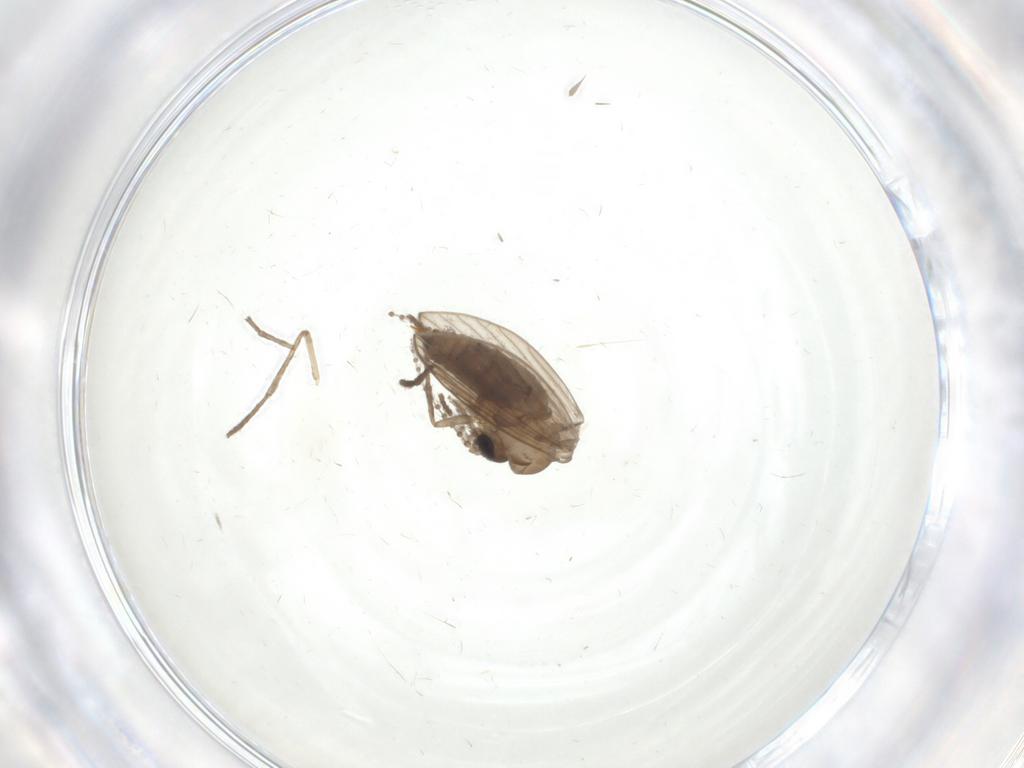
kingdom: Animalia
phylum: Arthropoda
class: Insecta
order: Diptera
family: Psychodidae
